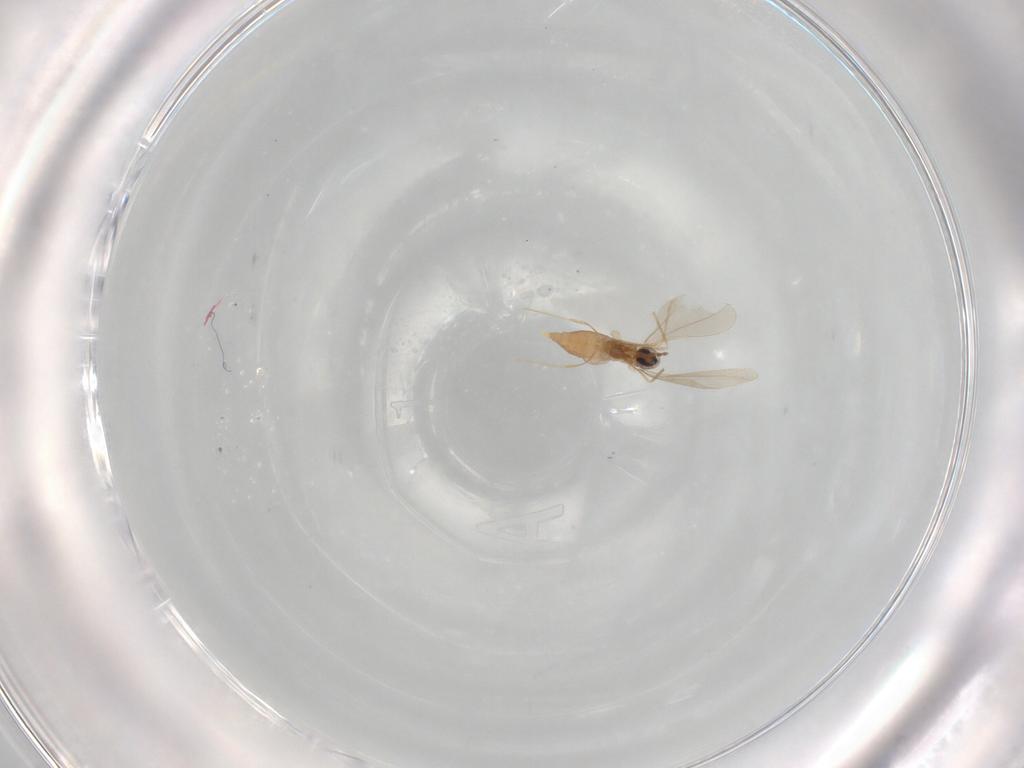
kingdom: Animalia
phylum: Arthropoda
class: Insecta
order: Diptera
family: Cecidomyiidae
